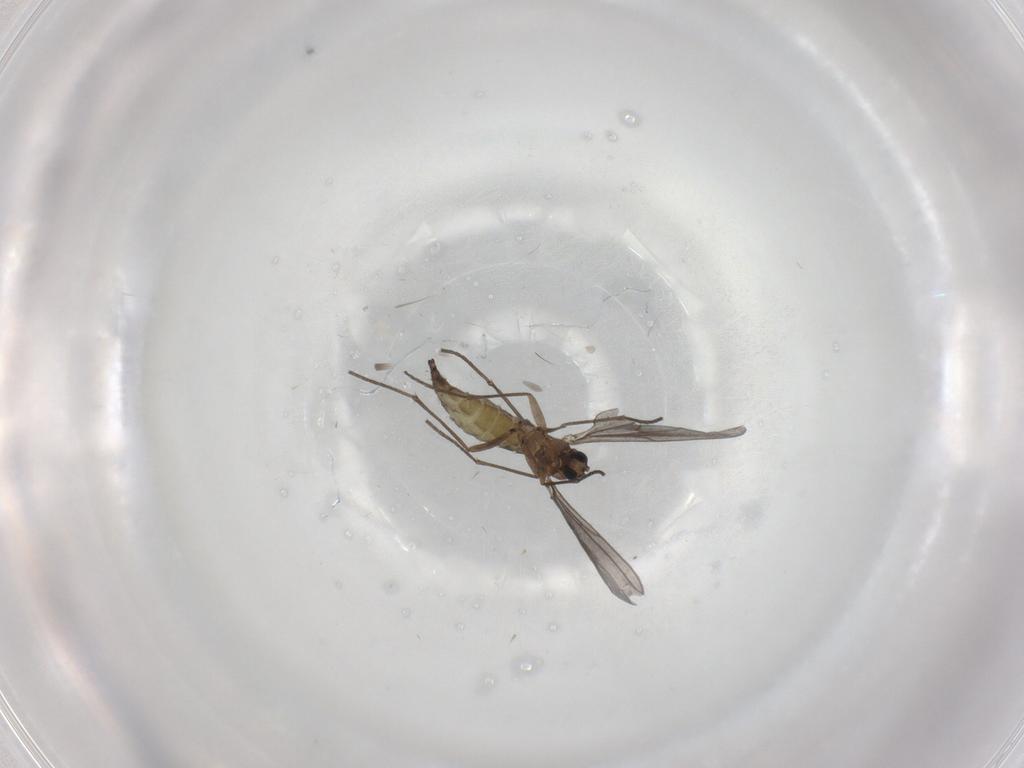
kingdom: Animalia
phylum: Arthropoda
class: Insecta
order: Diptera
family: Sciaridae
